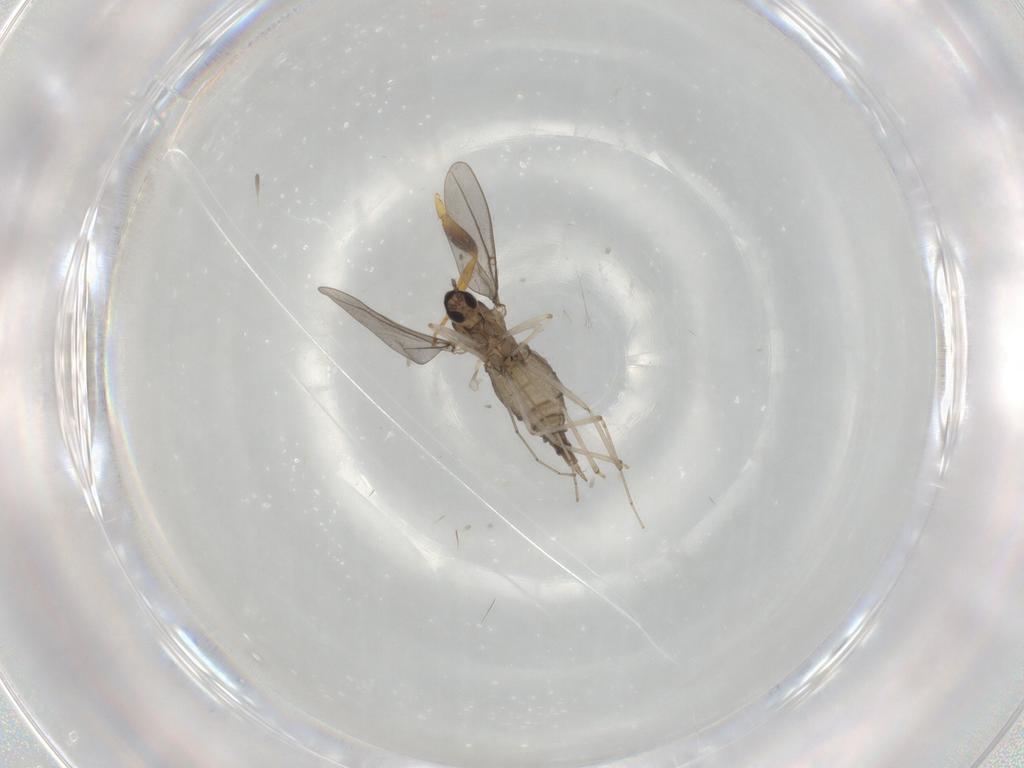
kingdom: Animalia
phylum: Arthropoda
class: Insecta
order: Diptera
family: Cecidomyiidae
